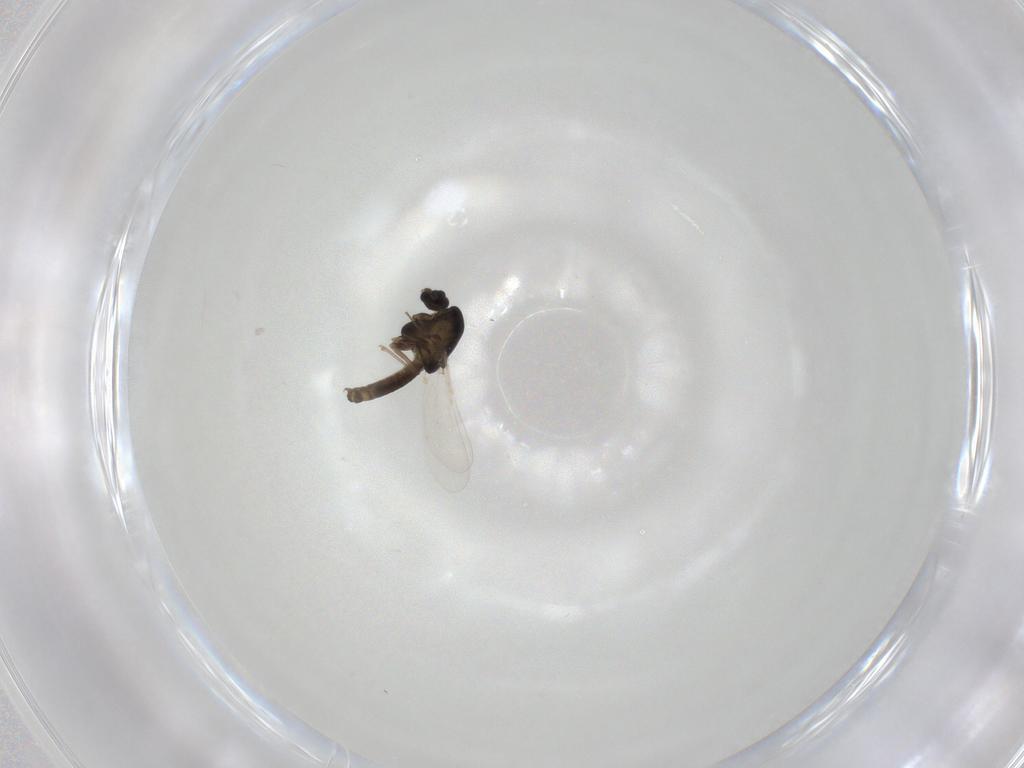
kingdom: Animalia
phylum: Arthropoda
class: Insecta
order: Diptera
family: Chironomidae
